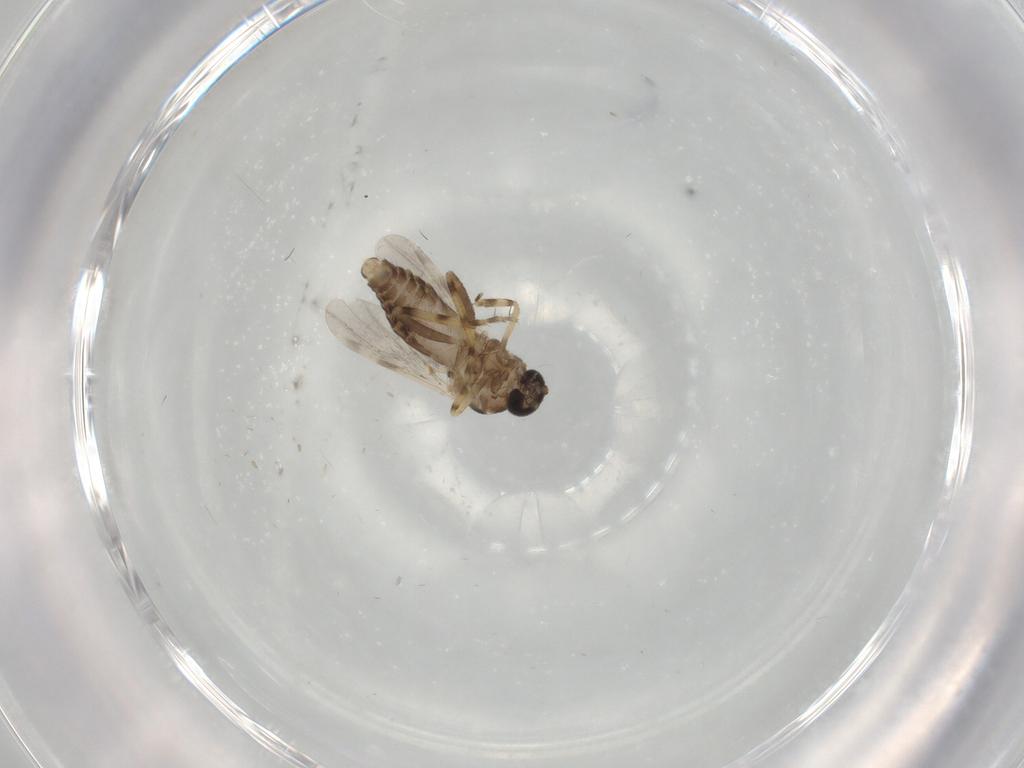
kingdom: Animalia
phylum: Arthropoda
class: Insecta
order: Diptera
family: Ceratopogonidae
